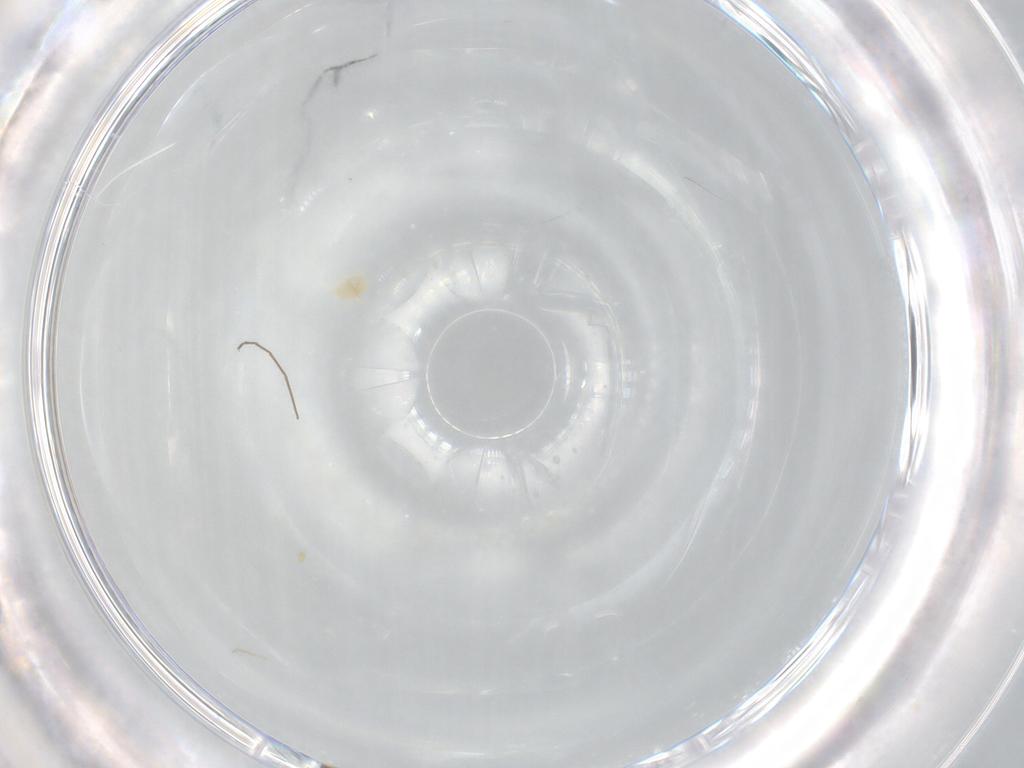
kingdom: Animalia
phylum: Arthropoda
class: Arachnida
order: Trombidiformes
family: Eupodidae
